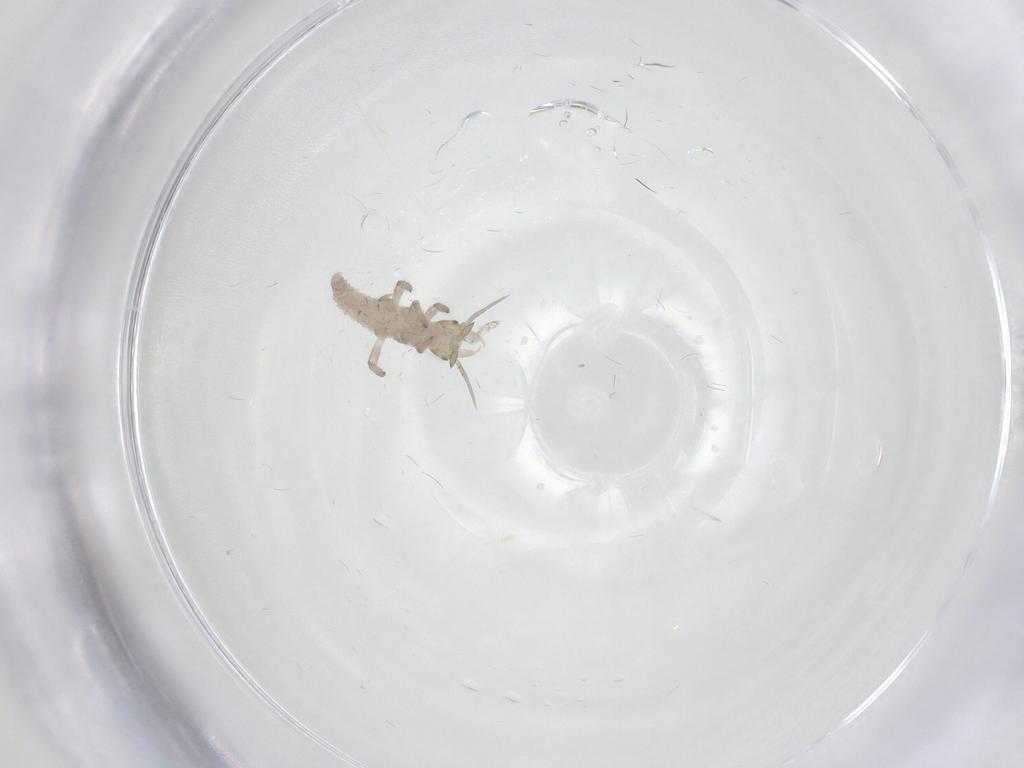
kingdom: Animalia
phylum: Arthropoda
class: Insecta
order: Neuroptera
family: Hemerobiidae
